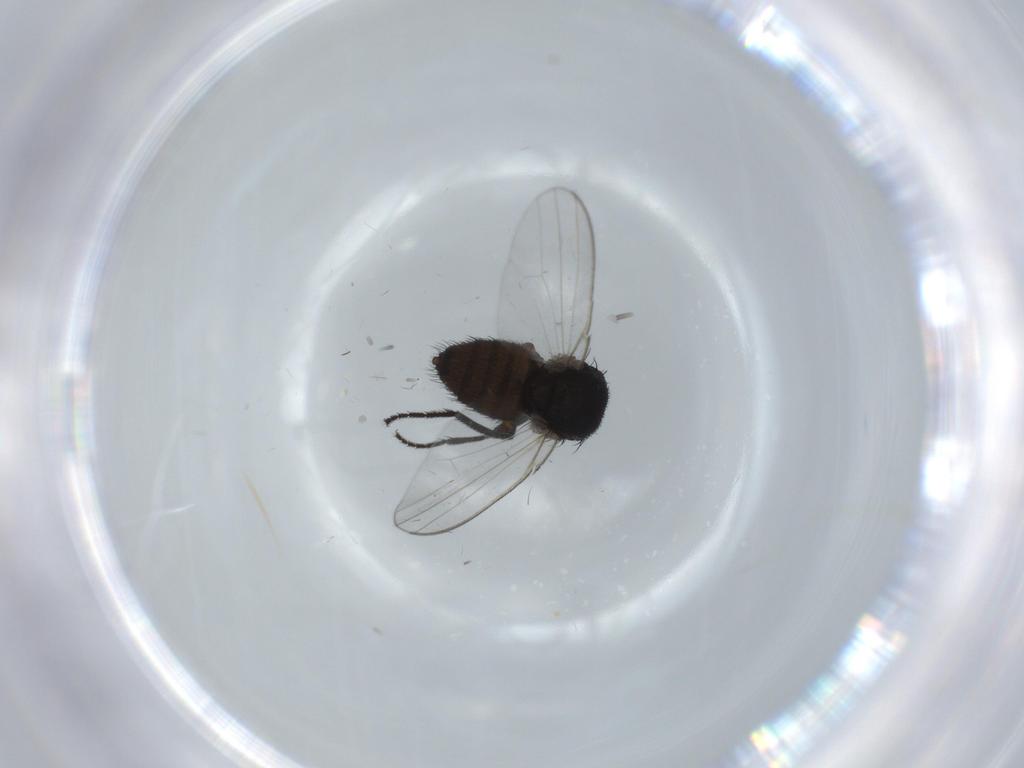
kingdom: Animalia
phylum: Arthropoda
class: Insecta
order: Diptera
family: Milichiidae
